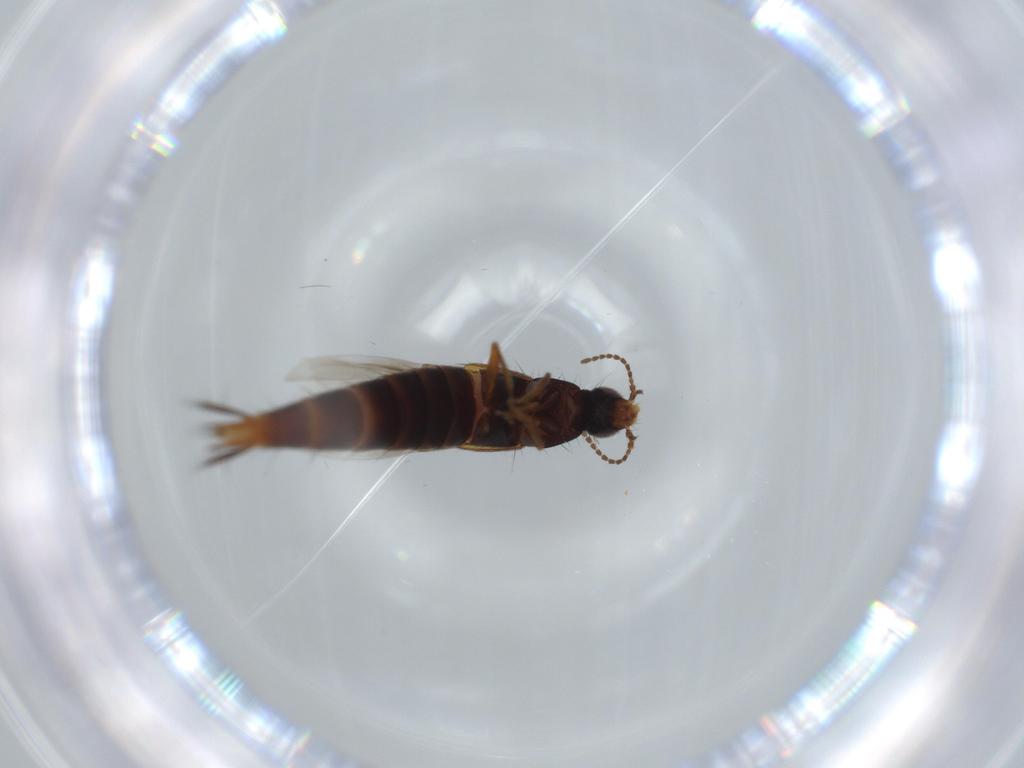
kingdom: Animalia
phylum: Arthropoda
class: Insecta
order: Coleoptera
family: Staphylinidae
